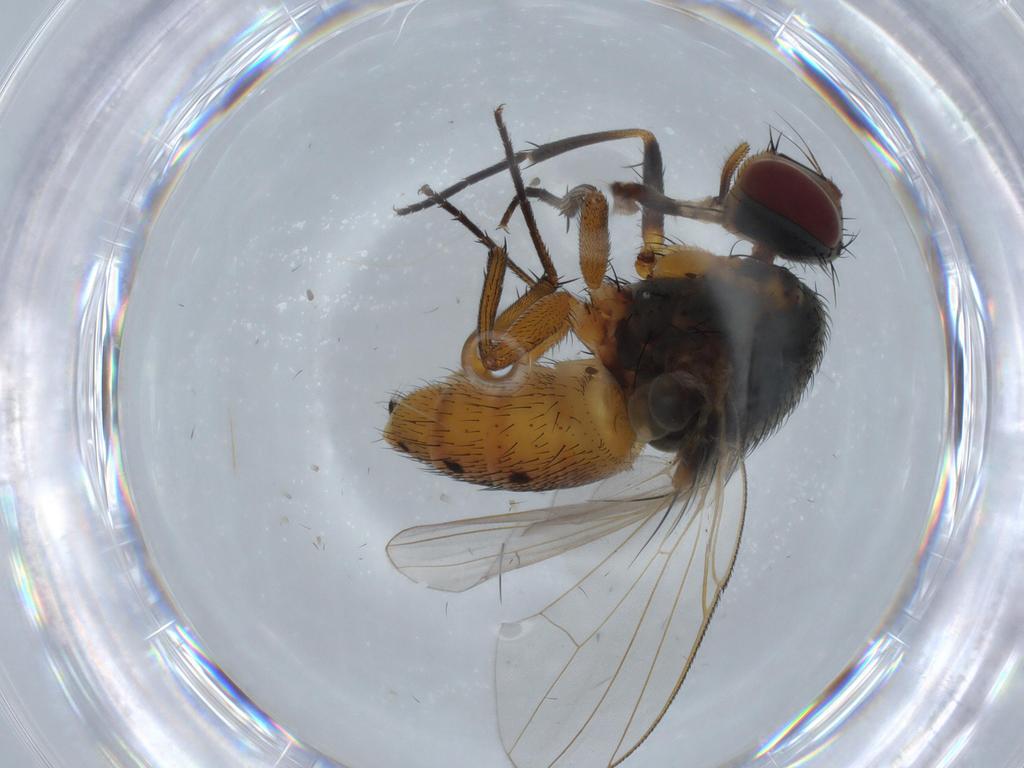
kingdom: Animalia
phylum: Arthropoda
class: Insecta
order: Diptera
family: Muscidae
